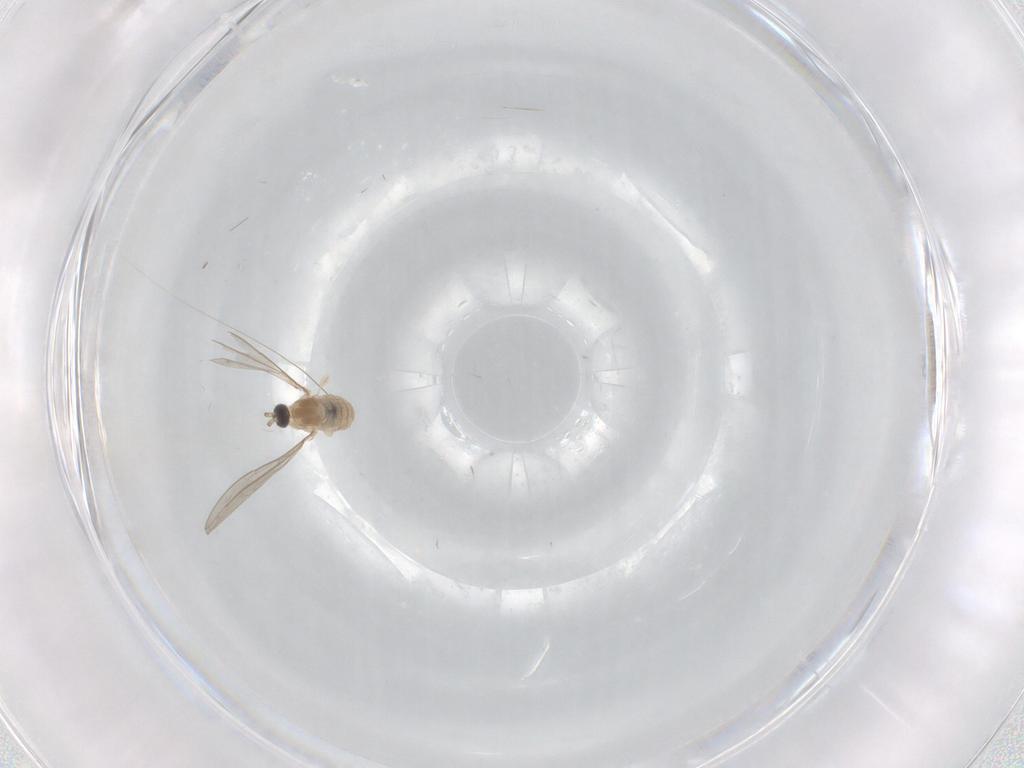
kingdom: Animalia
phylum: Arthropoda
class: Insecta
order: Diptera
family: Cecidomyiidae
